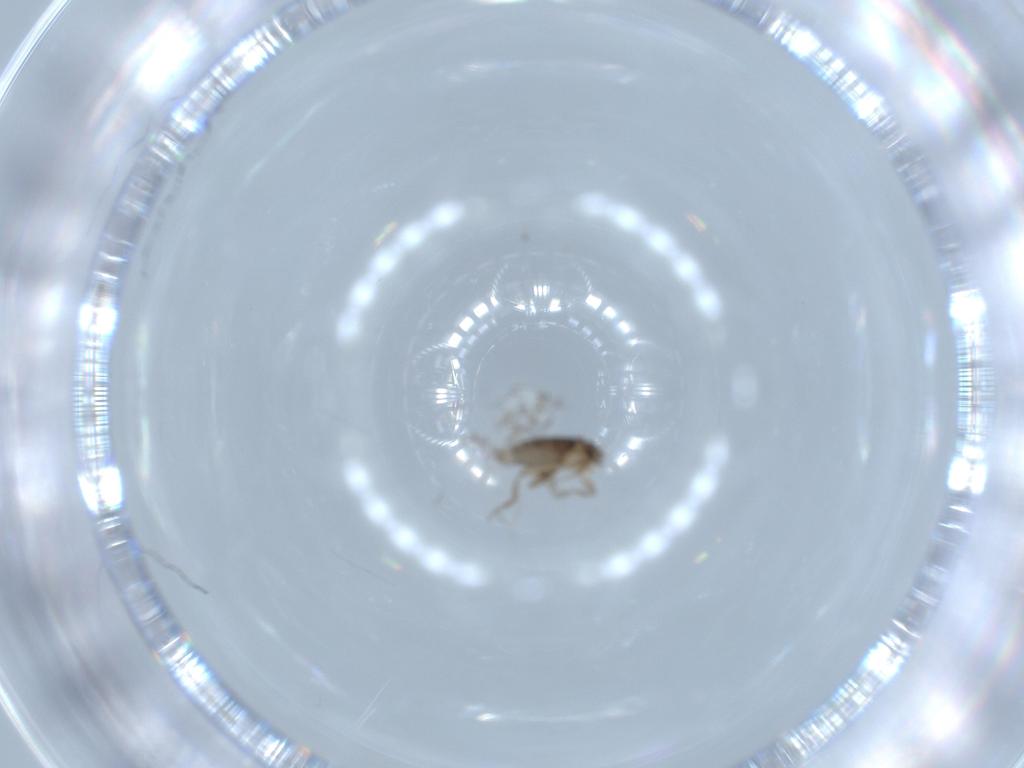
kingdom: Animalia
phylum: Arthropoda
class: Insecta
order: Diptera
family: Phoridae
